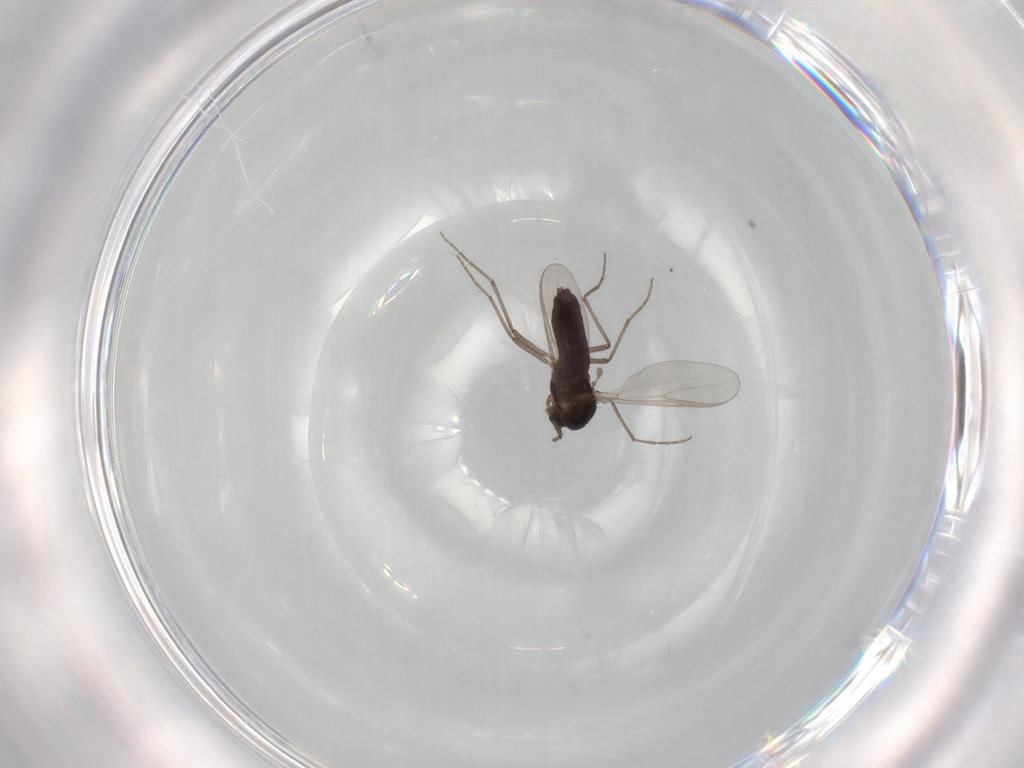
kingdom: Animalia
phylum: Arthropoda
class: Insecta
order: Diptera
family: Chironomidae
